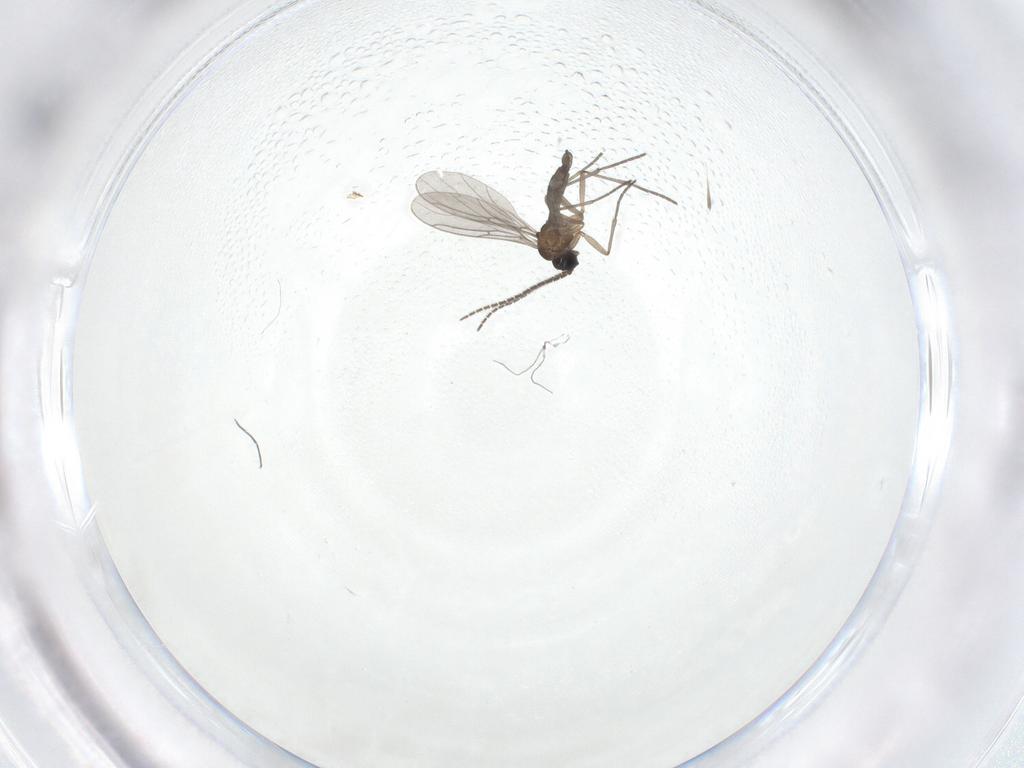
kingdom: Animalia
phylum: Arthropoda
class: Insecta
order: Diptera
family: Sciaridae
